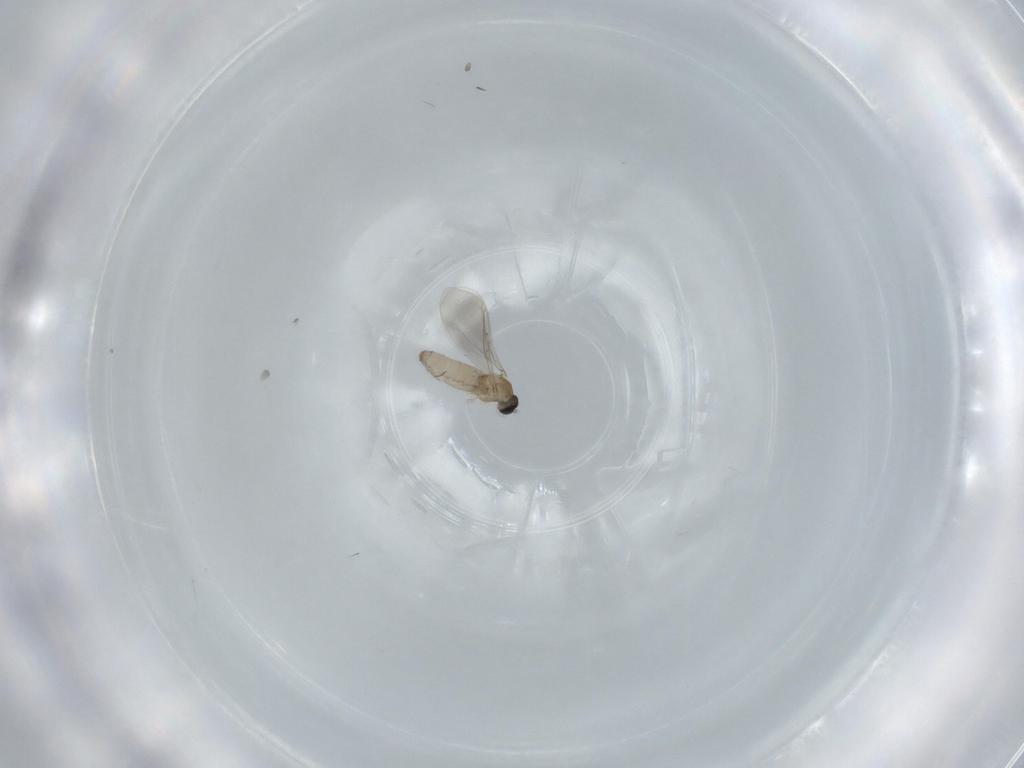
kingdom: Animalia
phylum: Arthropoda
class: Insecta
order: Diptera
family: Cecidomyiidae
